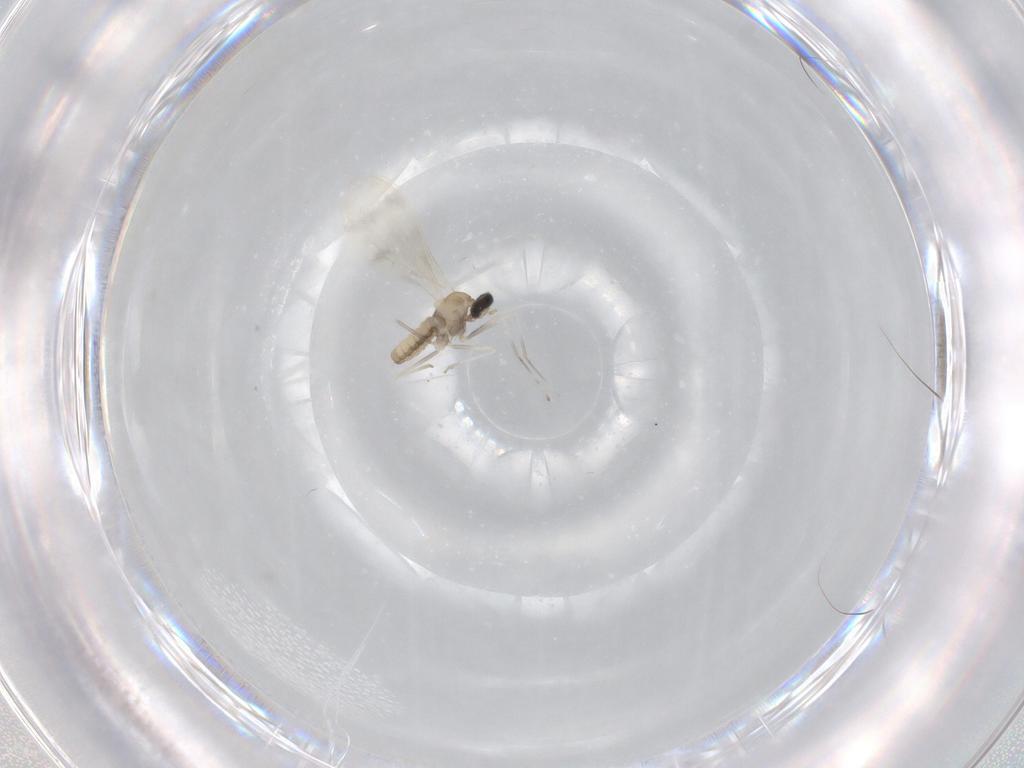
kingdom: Animalia
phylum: Arthropoda
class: Insecta
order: Diptera
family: Cecidomyiidae
